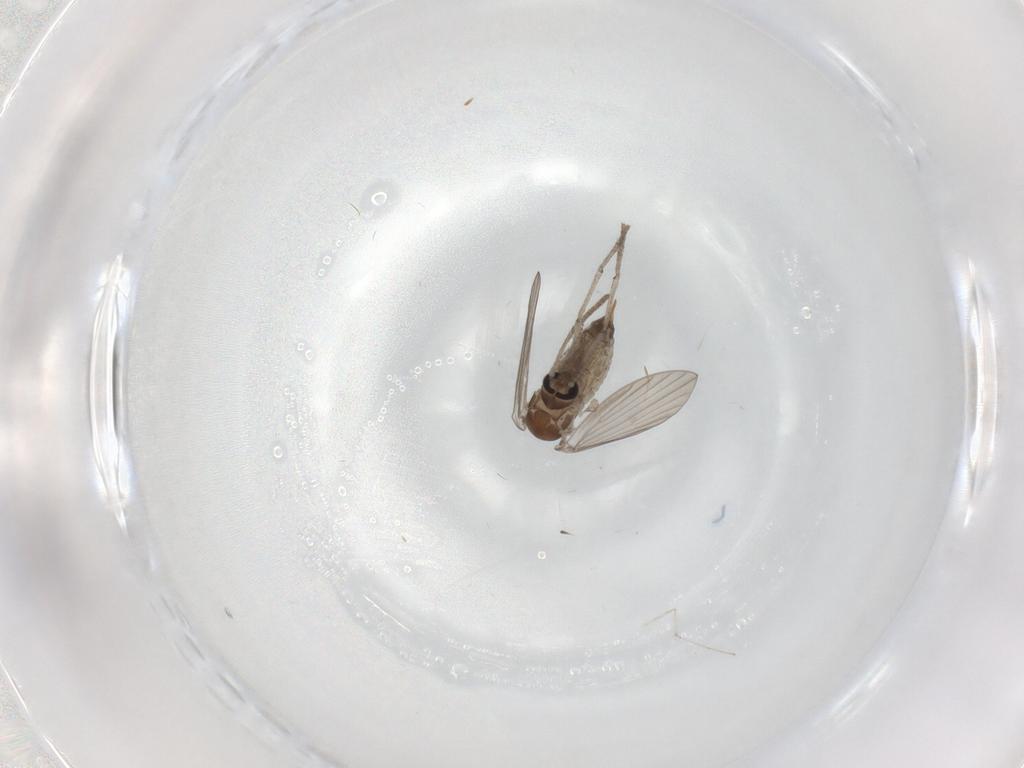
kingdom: Animalia
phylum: Arthropoda
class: Insecta
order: Diptera
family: Psychodidae
